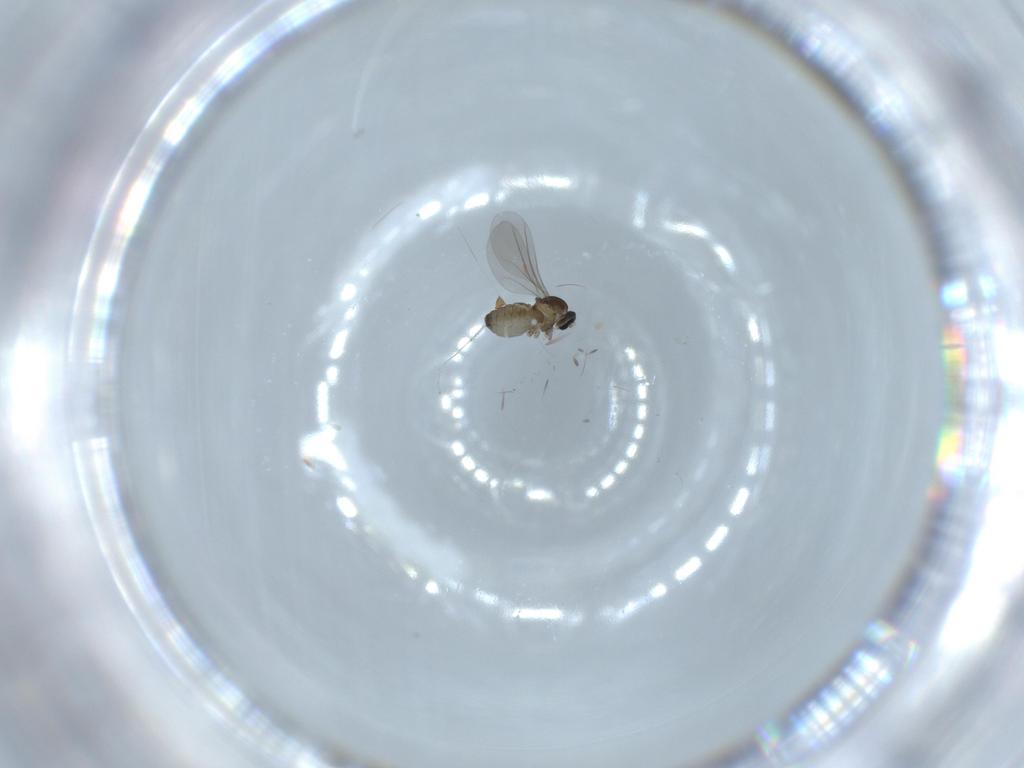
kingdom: Animalia
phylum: Arthropoda
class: Insecta
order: Diptera
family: Cecidomyiidae
